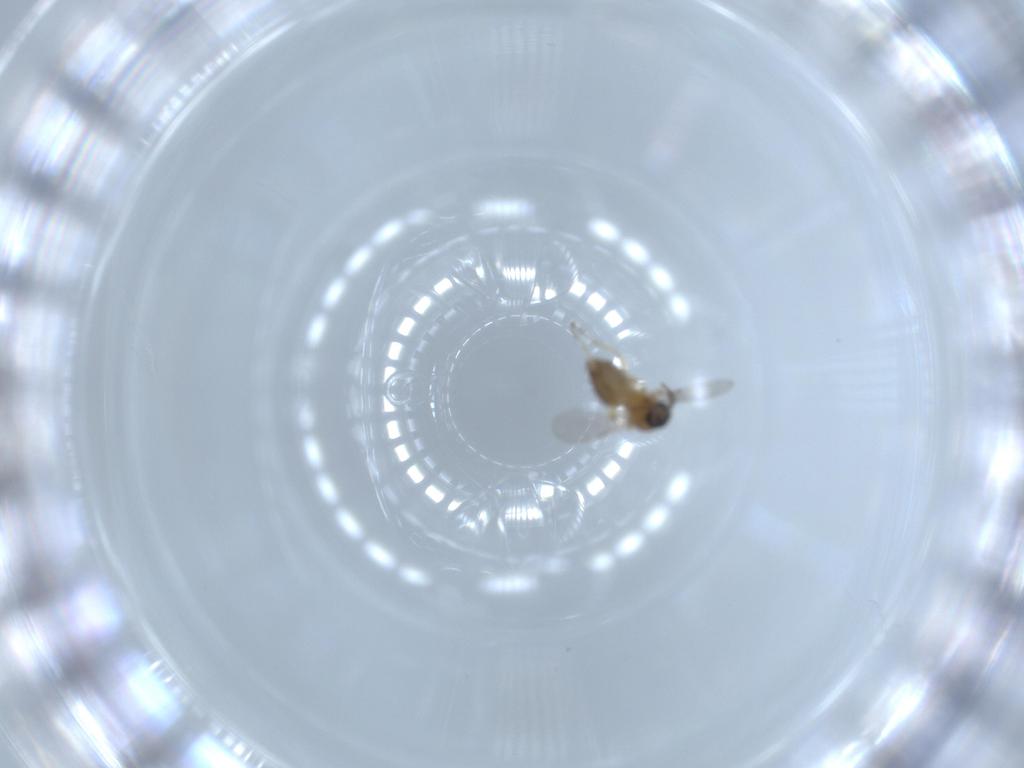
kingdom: Animalia
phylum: Arthropoda
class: Insecta
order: Diptera
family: Ceratopogonidae
